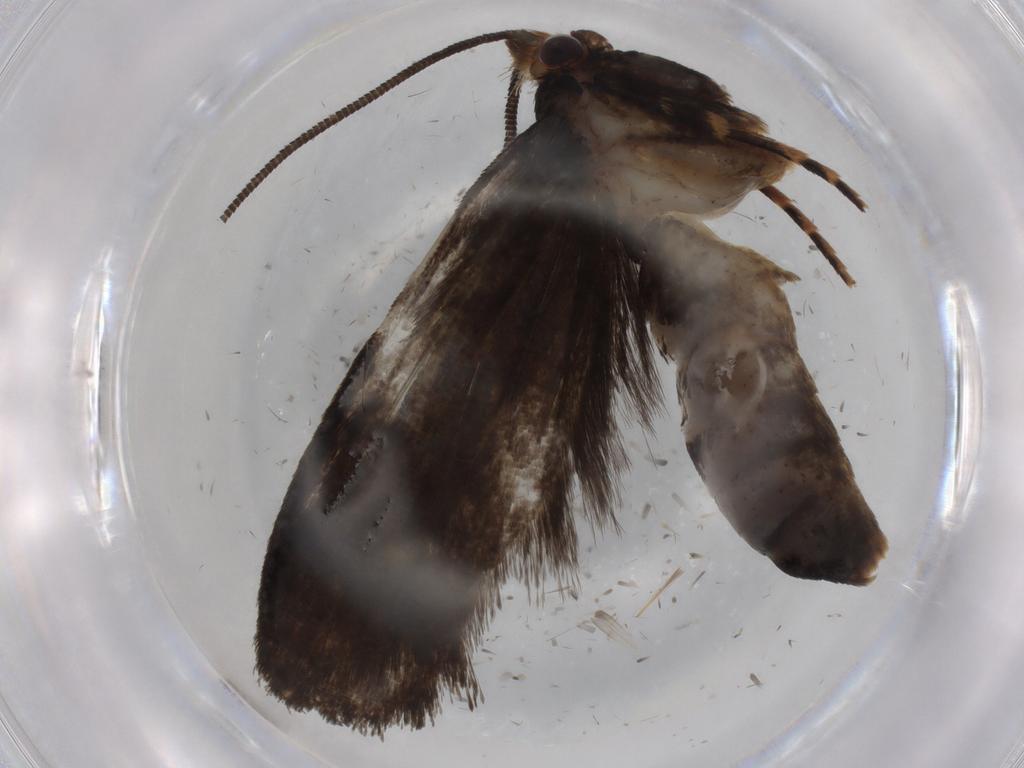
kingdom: Animalia
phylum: Arthropoda
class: Insecta
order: Lepidoptera
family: Tineidae
